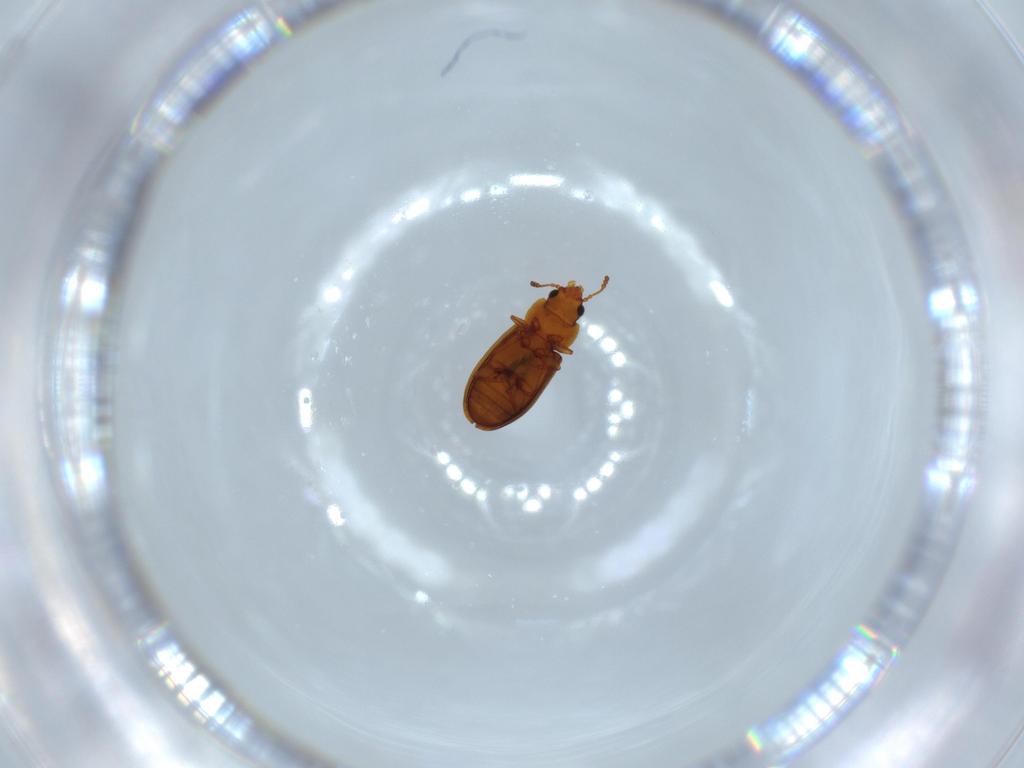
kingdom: Animalia
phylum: Arthropoda
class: Insecta
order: Coleoptera
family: Laemophloeidae
